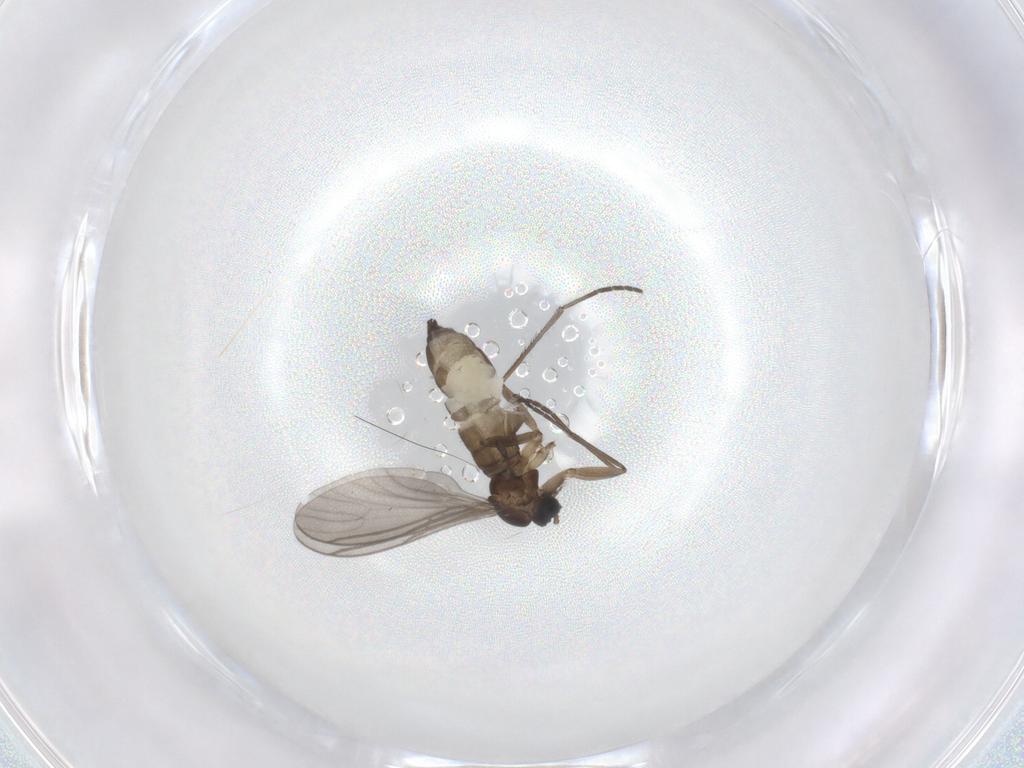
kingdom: Animalia
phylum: Arthropoda
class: Insecta
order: Diptera
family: Sciaridae
